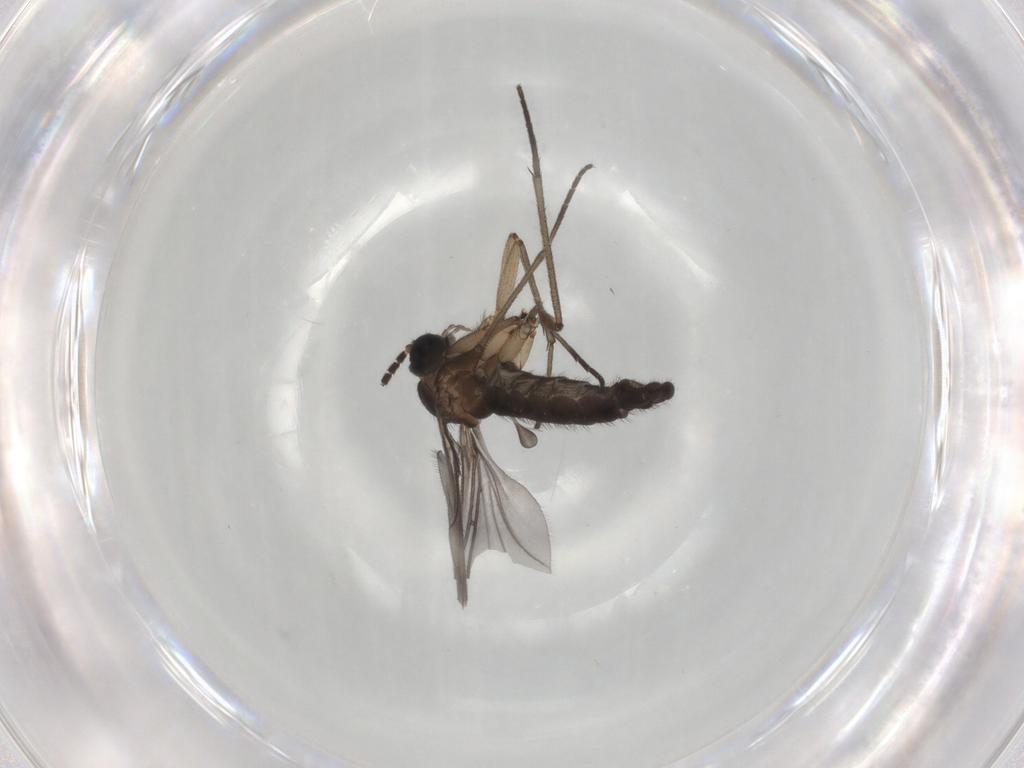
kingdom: Animalia
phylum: Arthropoda
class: Insecta
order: Diptera
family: Sciaridae
